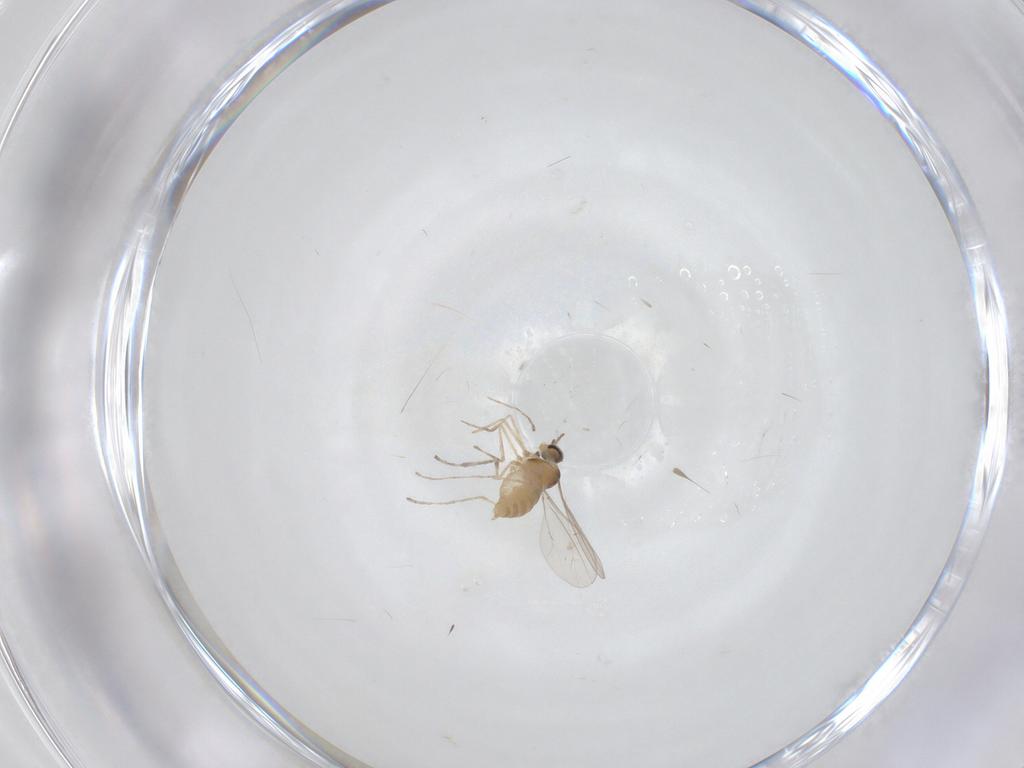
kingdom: Animalia
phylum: Arthropoda
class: Insecta
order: Diptera
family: Cecidomyiidae
